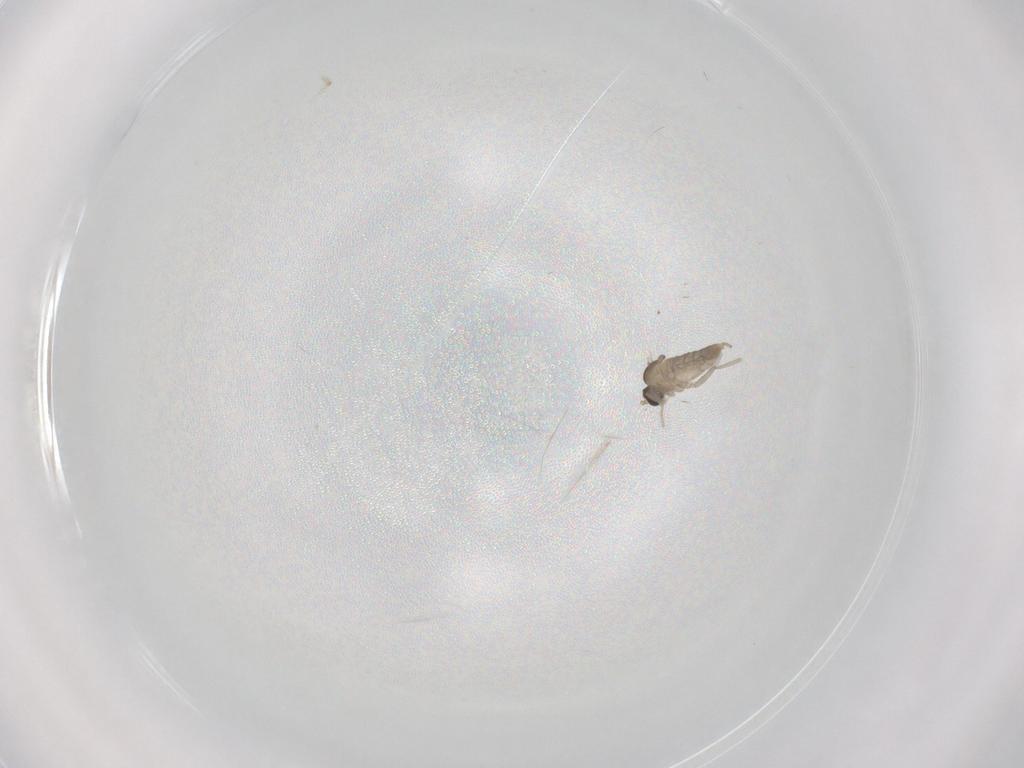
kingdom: Animalia
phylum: Arthropoda
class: Insecta
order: Diptera
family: Cecidomyiidae
